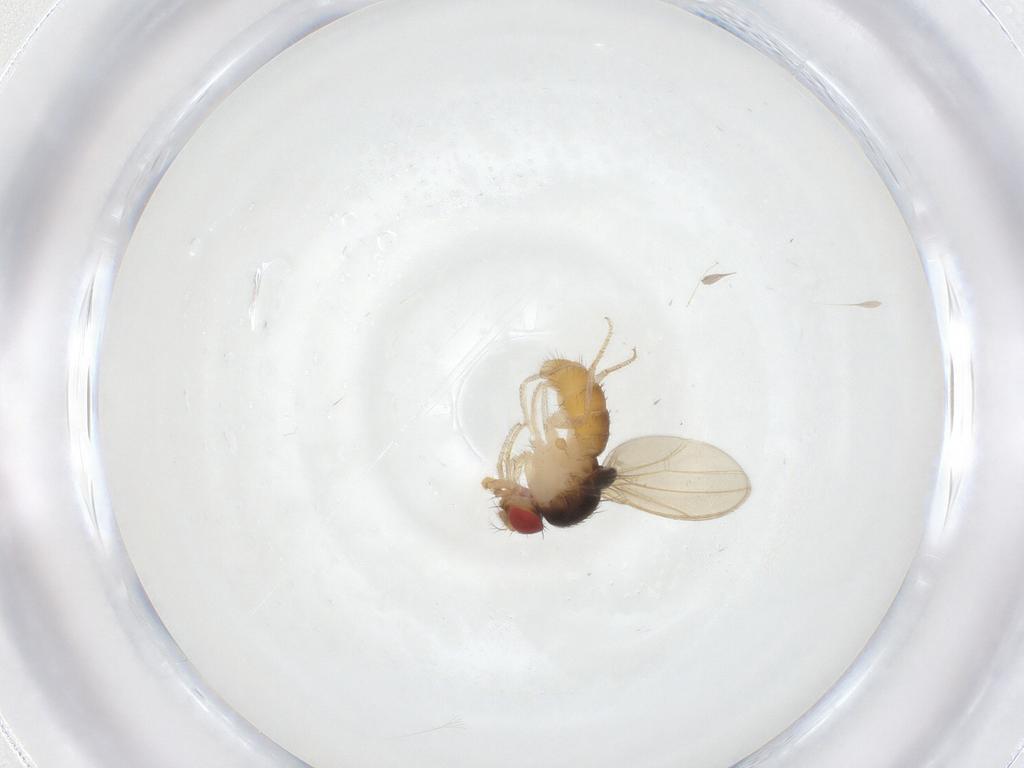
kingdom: Animalia
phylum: Arthropoda
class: Insecta
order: Diptera
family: Drosophilidae
